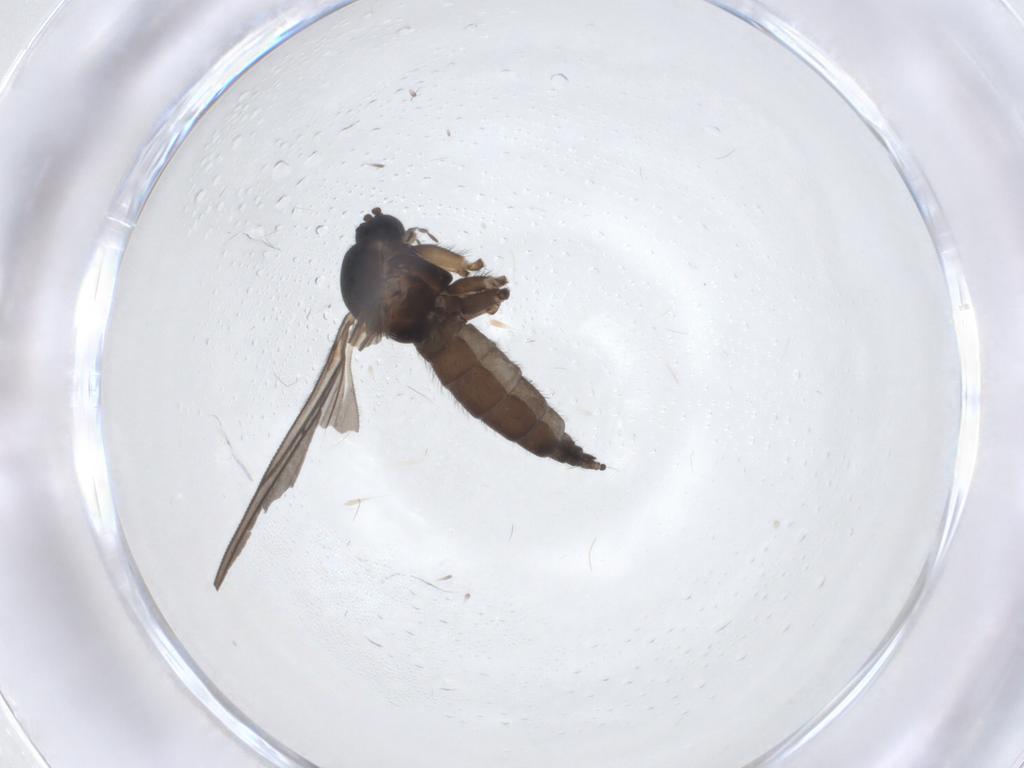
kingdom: Animalia
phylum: Arthropoda
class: Insecta
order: Diptera
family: Sciaridae
